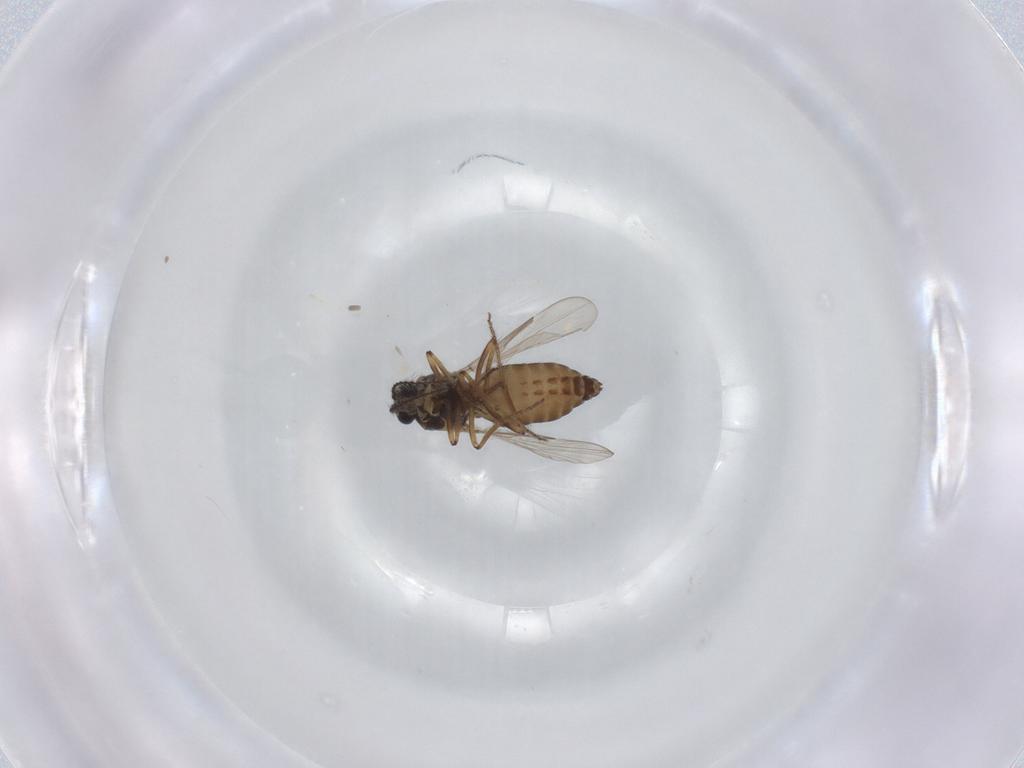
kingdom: Animalia
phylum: Arthropoda
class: Insecta
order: Diptera
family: Ceratopogonidae
